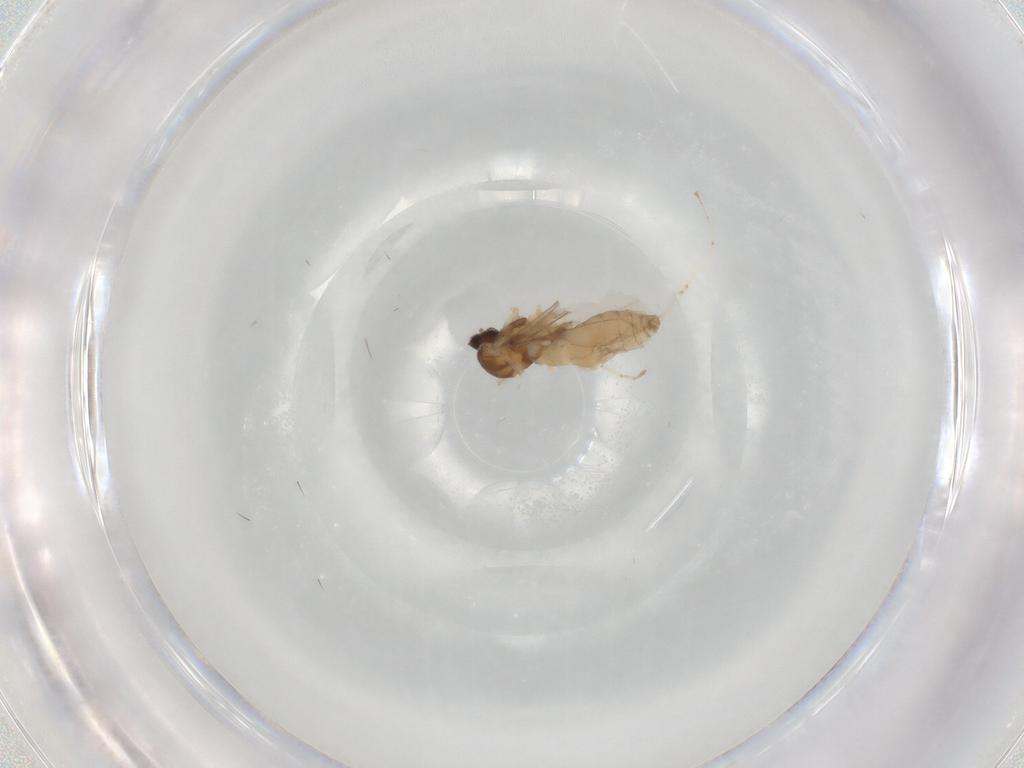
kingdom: Animalia
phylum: Arthropoda
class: Insecta
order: Diptera
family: Cecidomyiidae
